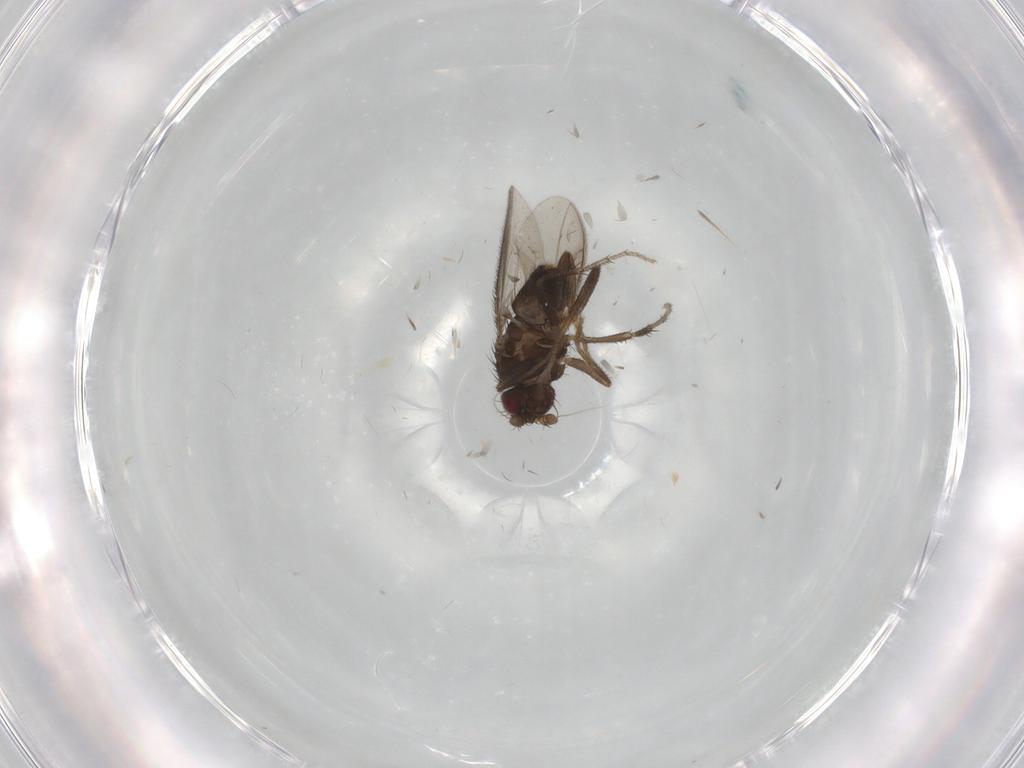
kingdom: Animalia
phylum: Arthropoda
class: Insecta
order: Diptera
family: Sphaeroceridae
